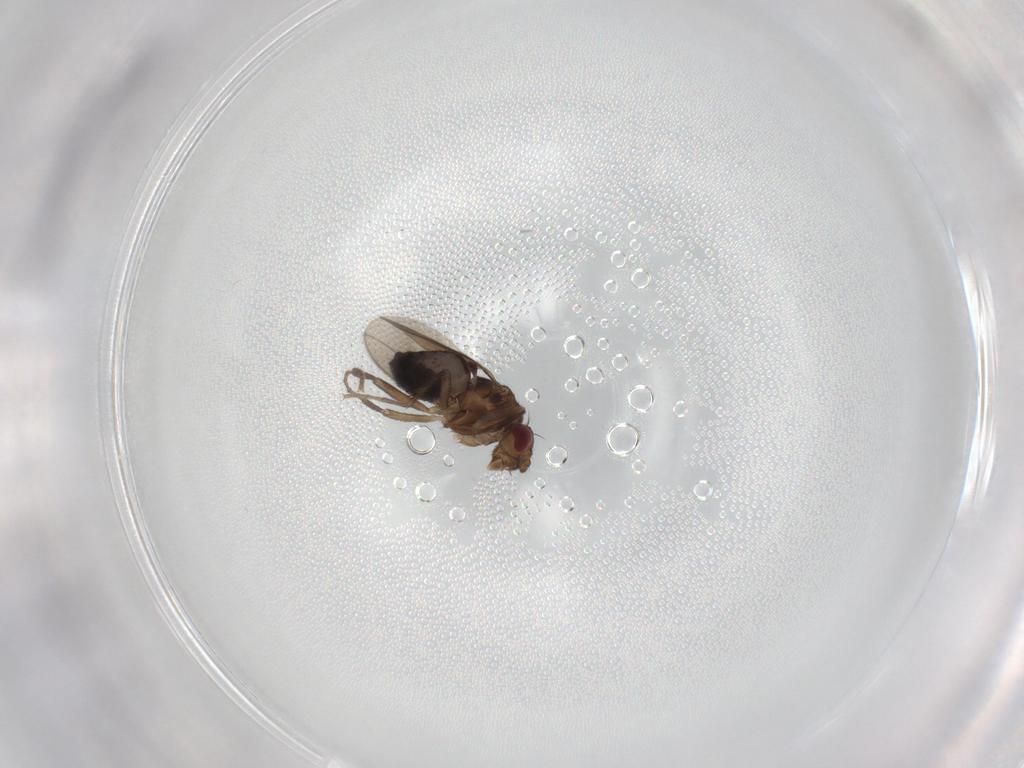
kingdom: Animalia
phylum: Arthropoda
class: Insecta
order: Diptera
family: Sphaeroceridae
